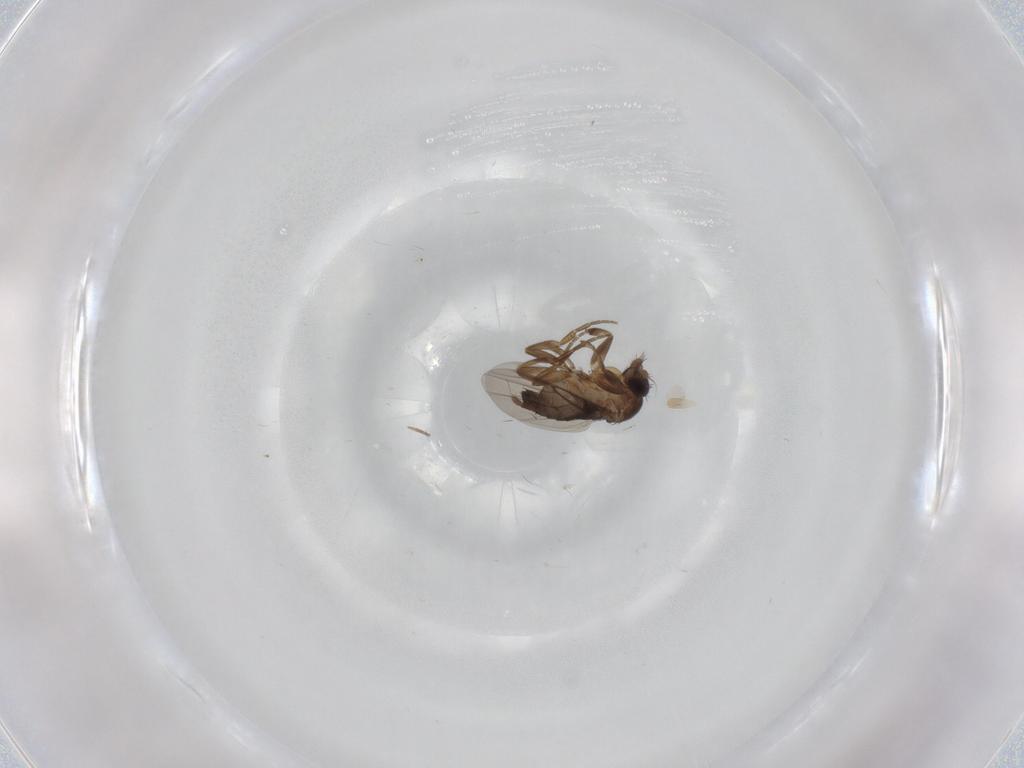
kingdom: Animalia
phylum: Arthropoda
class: Insecta
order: Diptera
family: Phoridae
